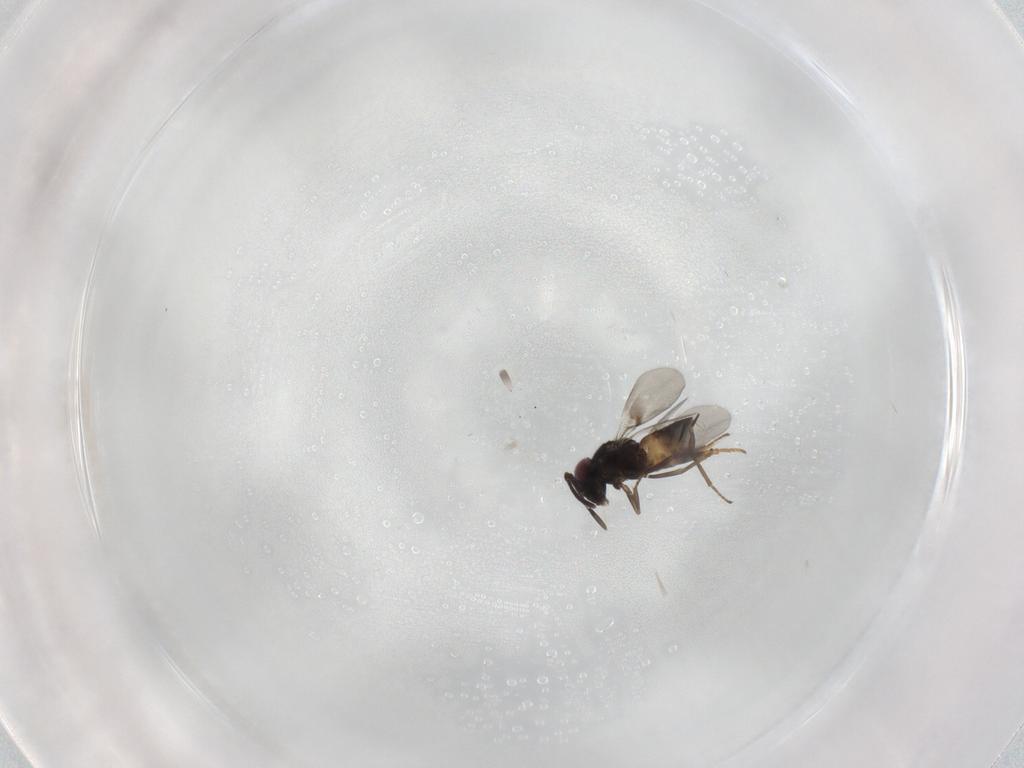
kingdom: Animalia
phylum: Arthropoda
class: Insecta
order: Hymenoptera
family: Encyrtidae
